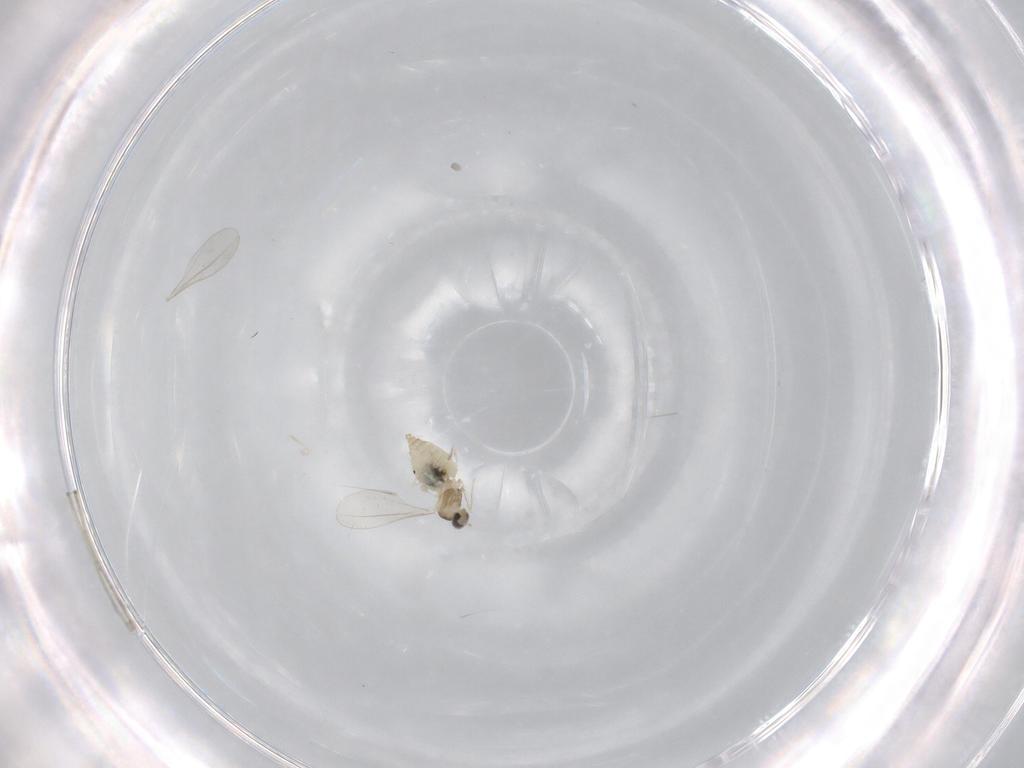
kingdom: Animalia
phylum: Arthropoda
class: Insecta
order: Diptera
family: Cecidomyiidae
